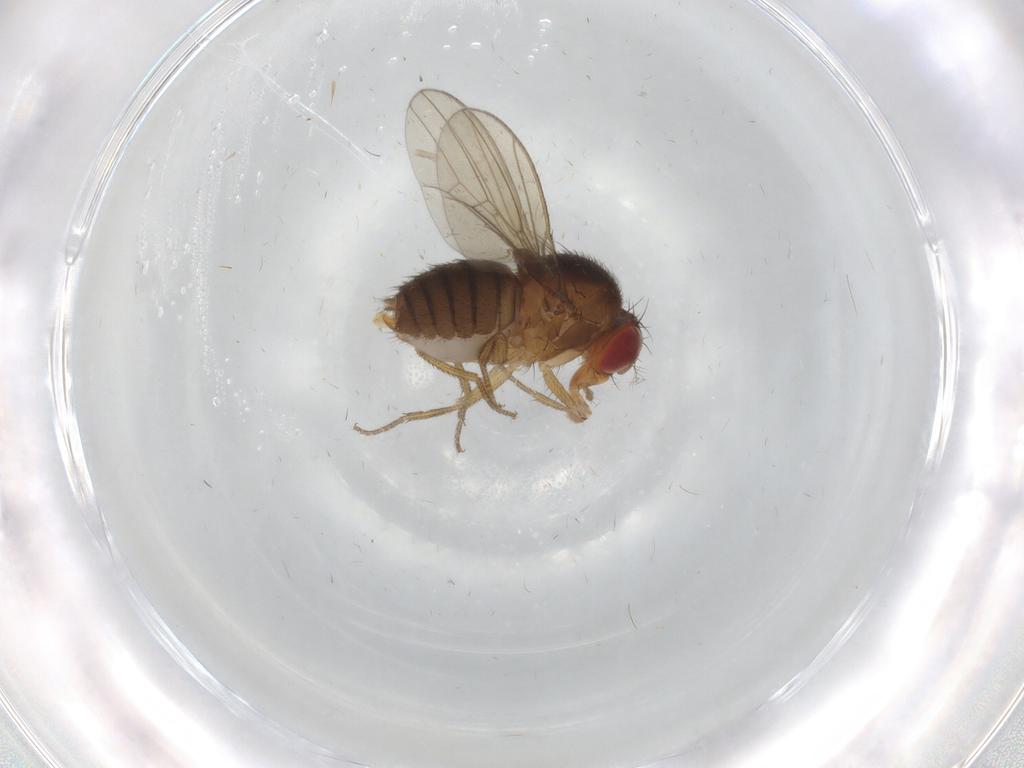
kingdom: Animalia
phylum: Arthropoda
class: Insecta
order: Diptera
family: Drosophilidae
